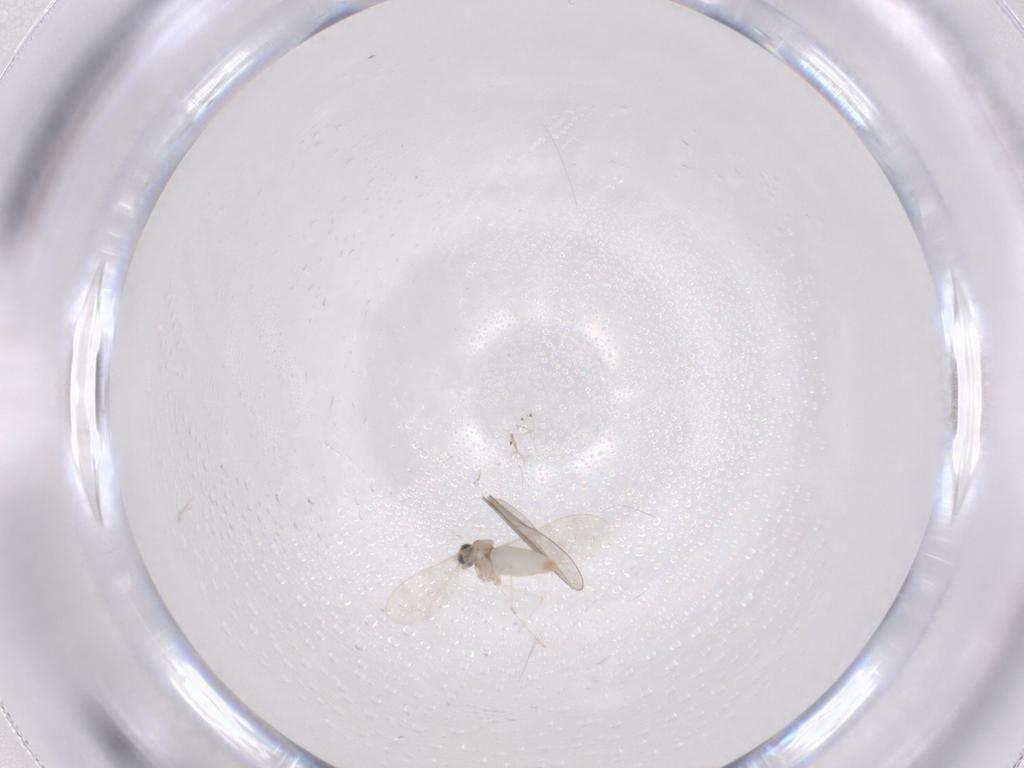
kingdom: Animalia
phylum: Arthropoda
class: Insecta
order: Diptera
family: Cecidomyiidae
